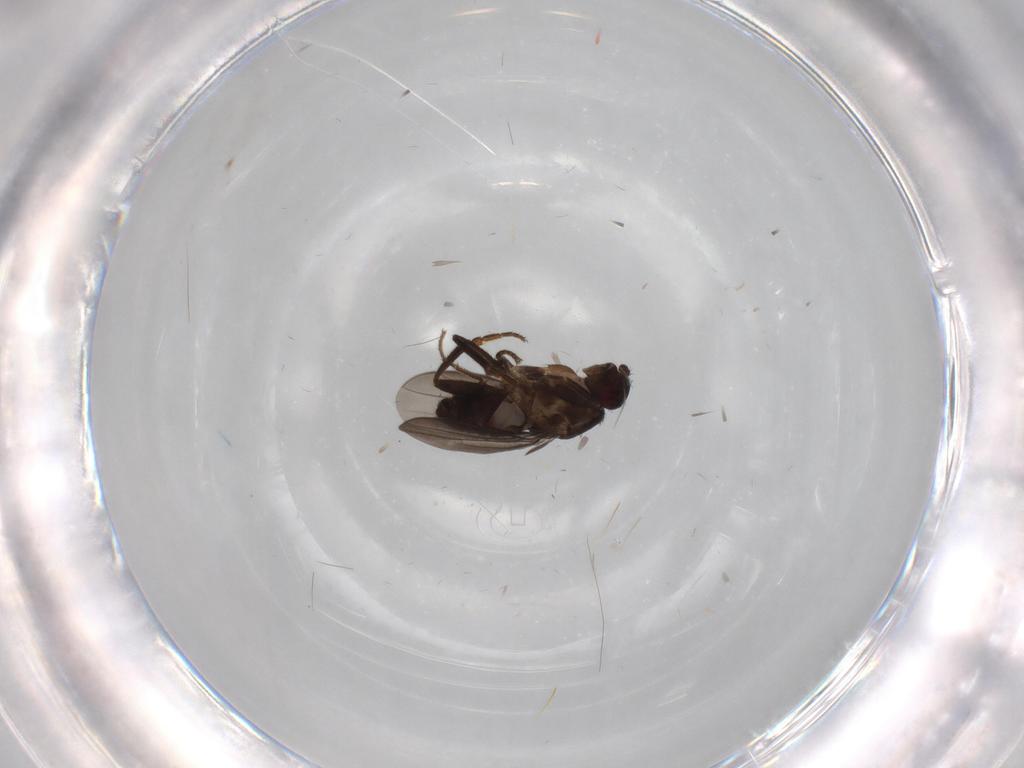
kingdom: Animalia
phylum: Arthropoda
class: Insecta
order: Diptera
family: Sphaeroceridae
